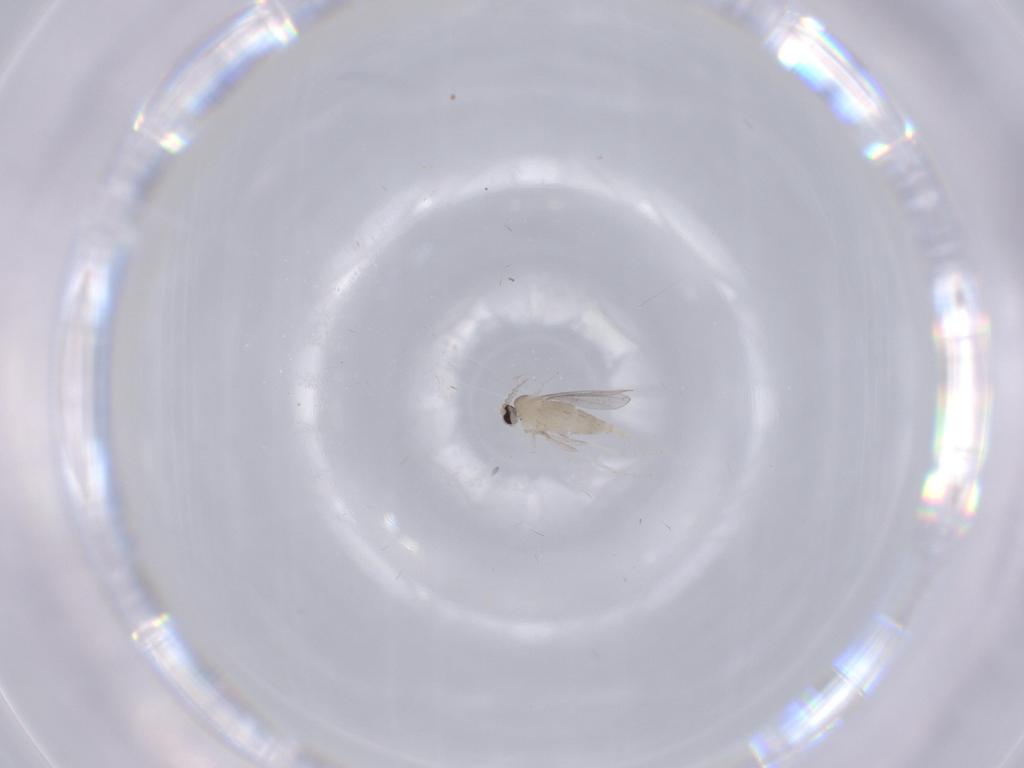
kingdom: Animalia
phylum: Arthropoda
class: Insecta
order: Diptera
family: Cecidomyiidae
